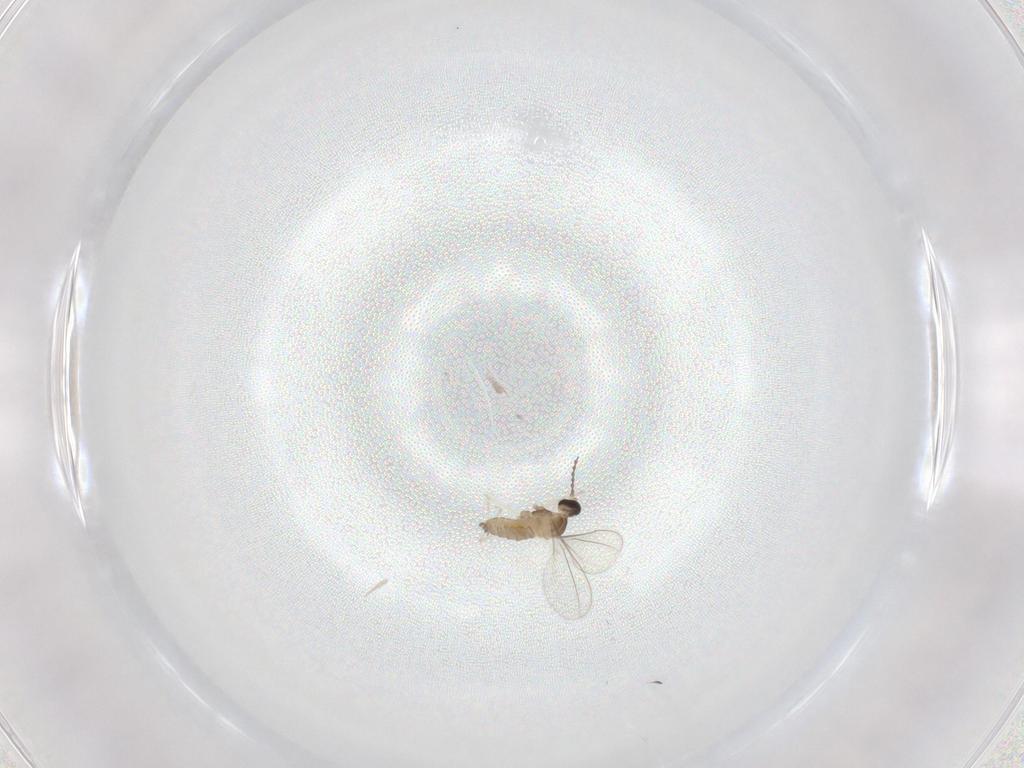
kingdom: Animalia
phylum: Arthropoda
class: Insecta
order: Diptera
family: Cecidomyiidae
